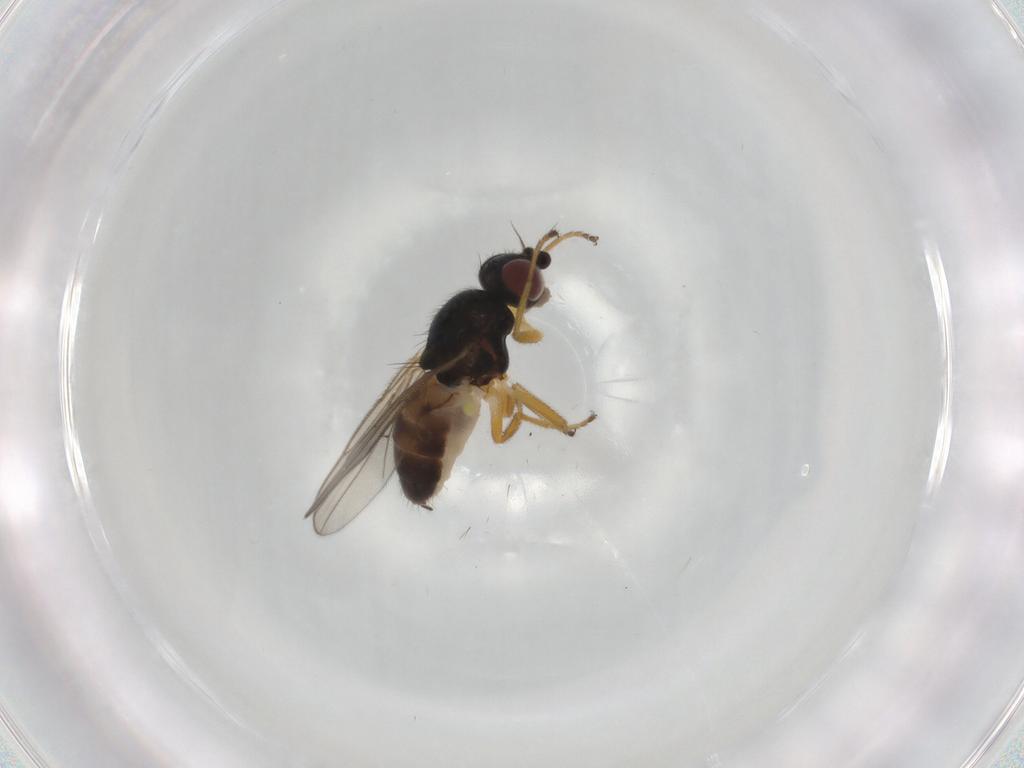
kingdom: Animalia
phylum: Arthropoda
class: Insecta
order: Diptera
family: Chloropidae
